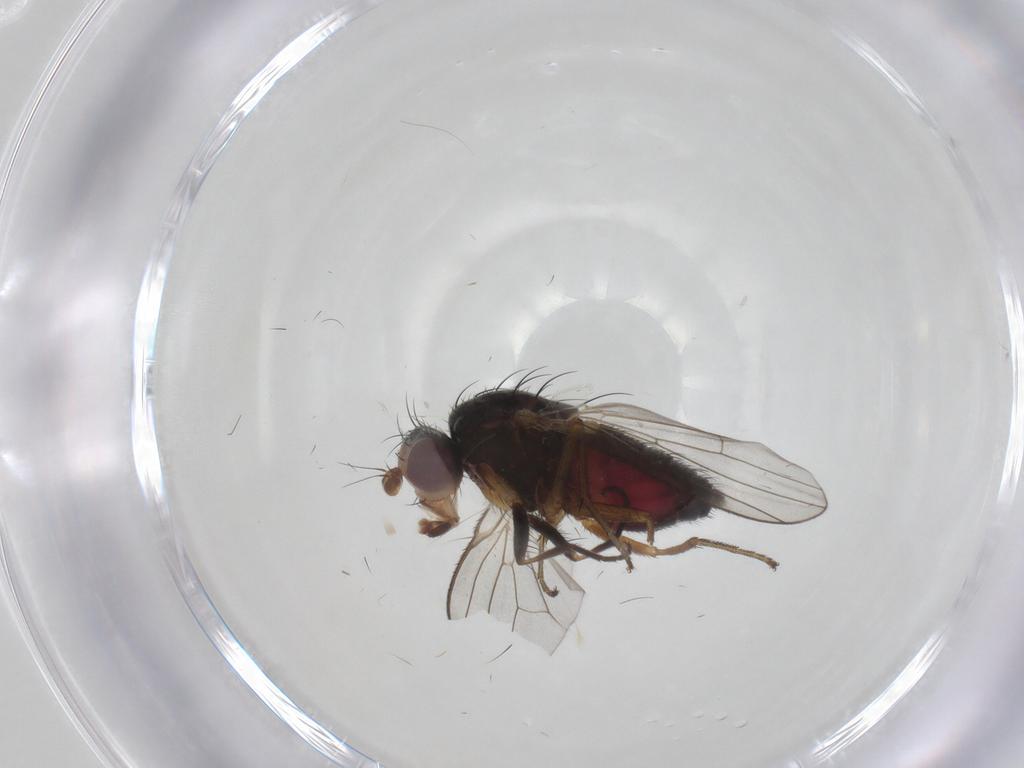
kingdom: Animalia
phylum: Arthropoda
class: Insecta
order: Diptera
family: Heleomyzidae
